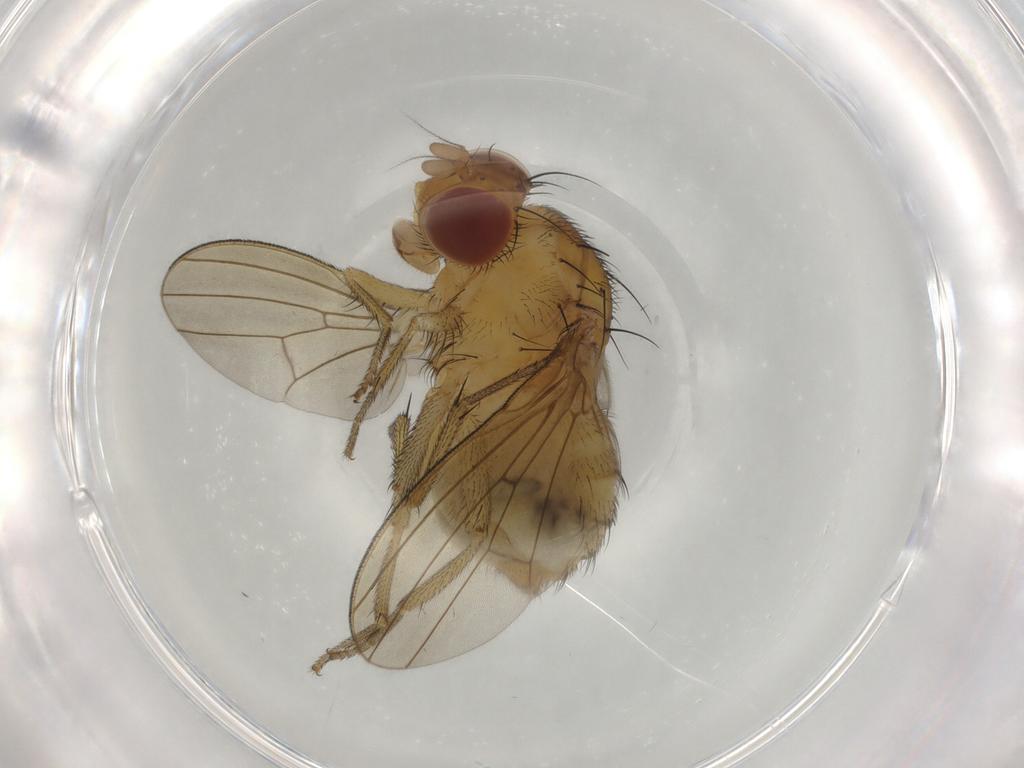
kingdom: Animalia
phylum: Arthropoda
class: Insecta
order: Diptera
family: Lauxaniidae
